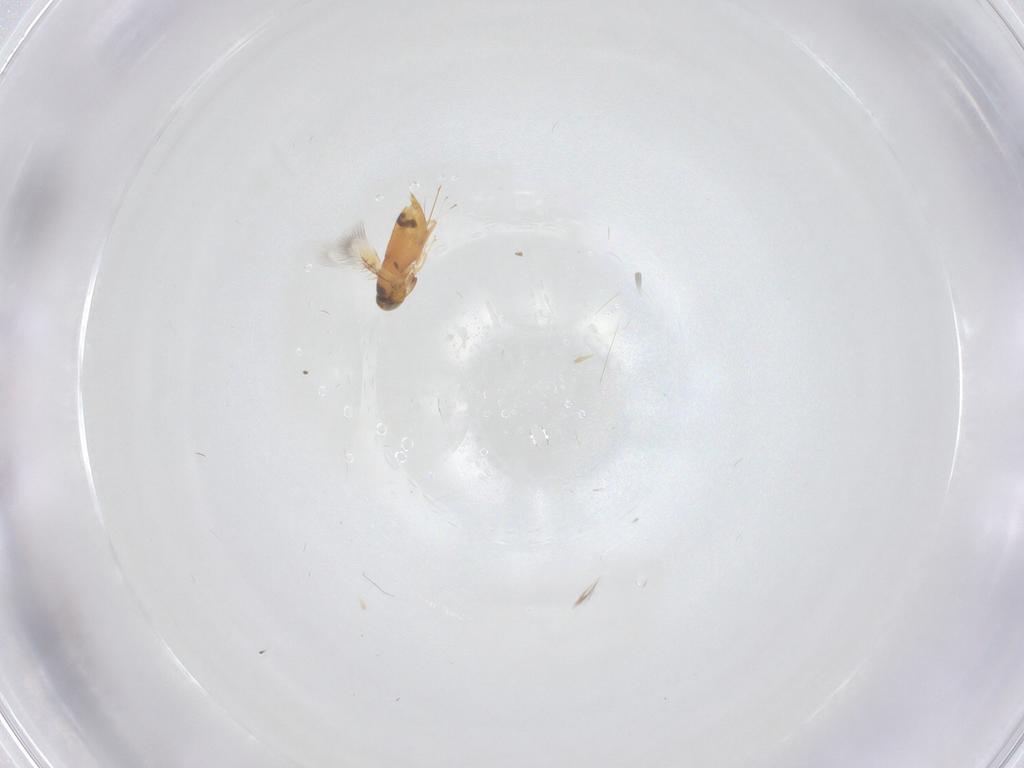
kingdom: Animalia
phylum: Arthropoda
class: Insecta
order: Hymenoptera
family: Signiphoridae
